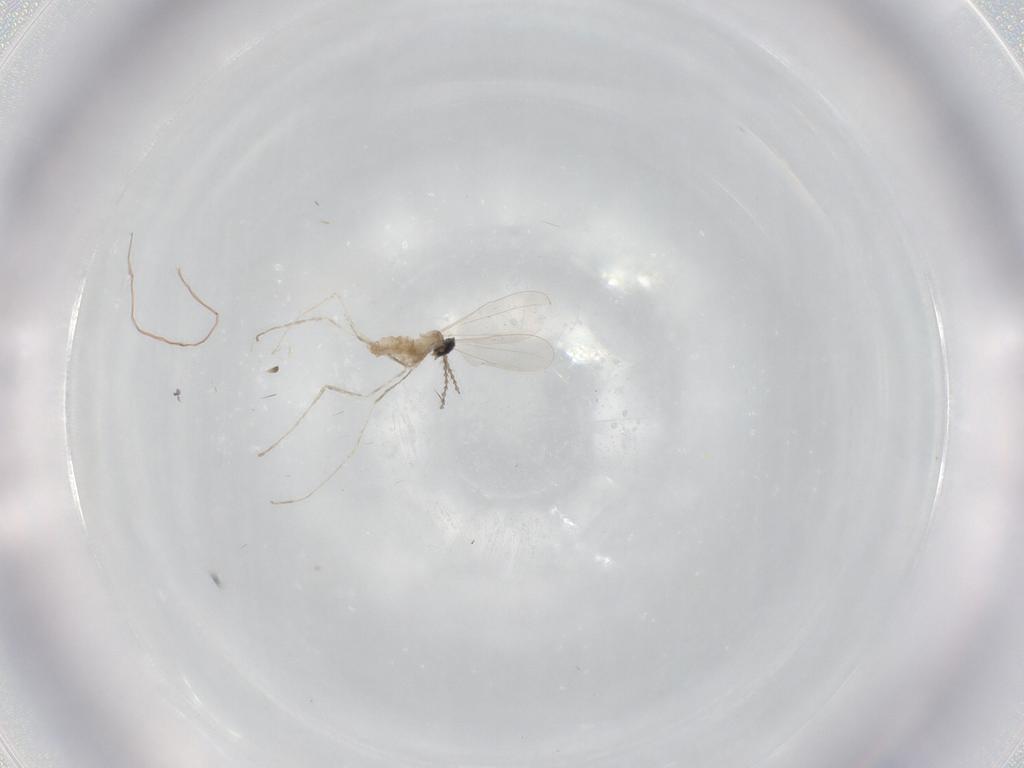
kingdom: Animalia
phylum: Arthropoda
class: Insecta
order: Diptera
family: Cecidomyiidae
